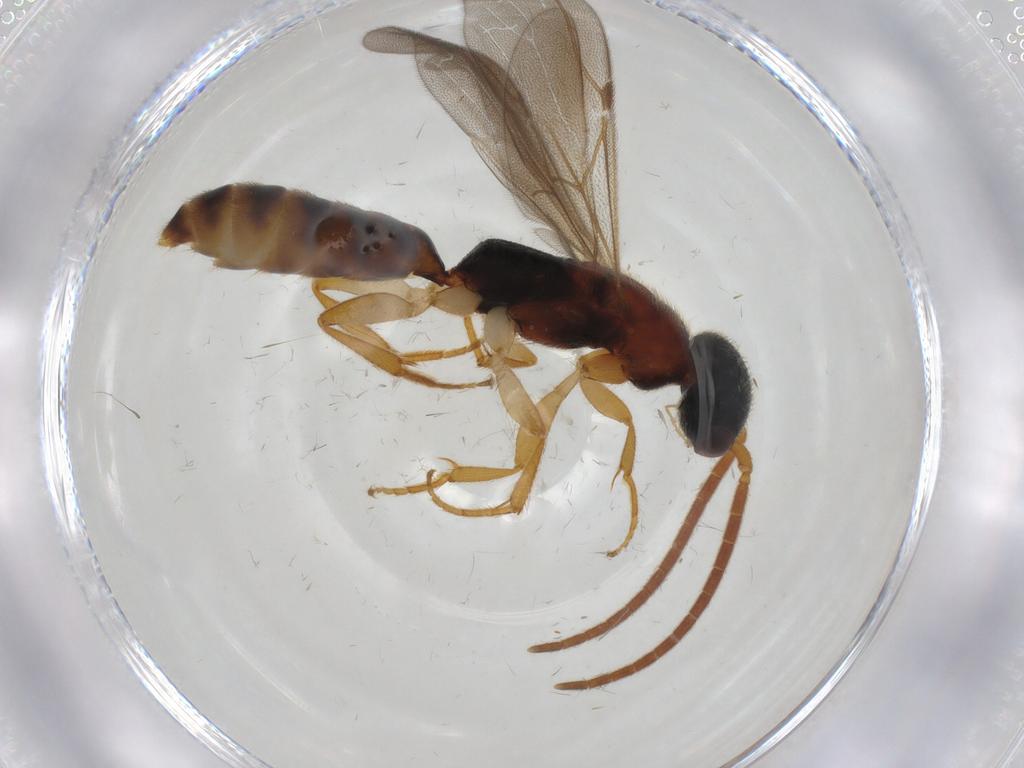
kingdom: Animalia
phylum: Arthropoda
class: Insecta
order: Hymenoptera
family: Bethylidae
